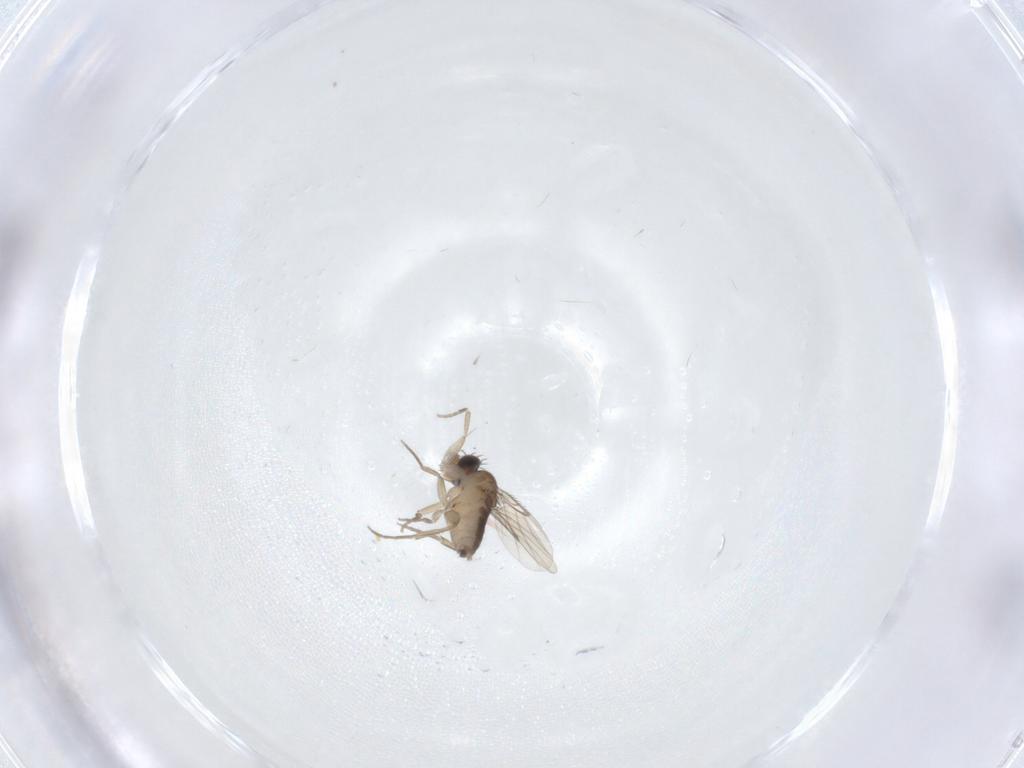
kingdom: Animalia
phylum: Arthropoda
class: Insecta
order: Diptera
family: Phoridae
